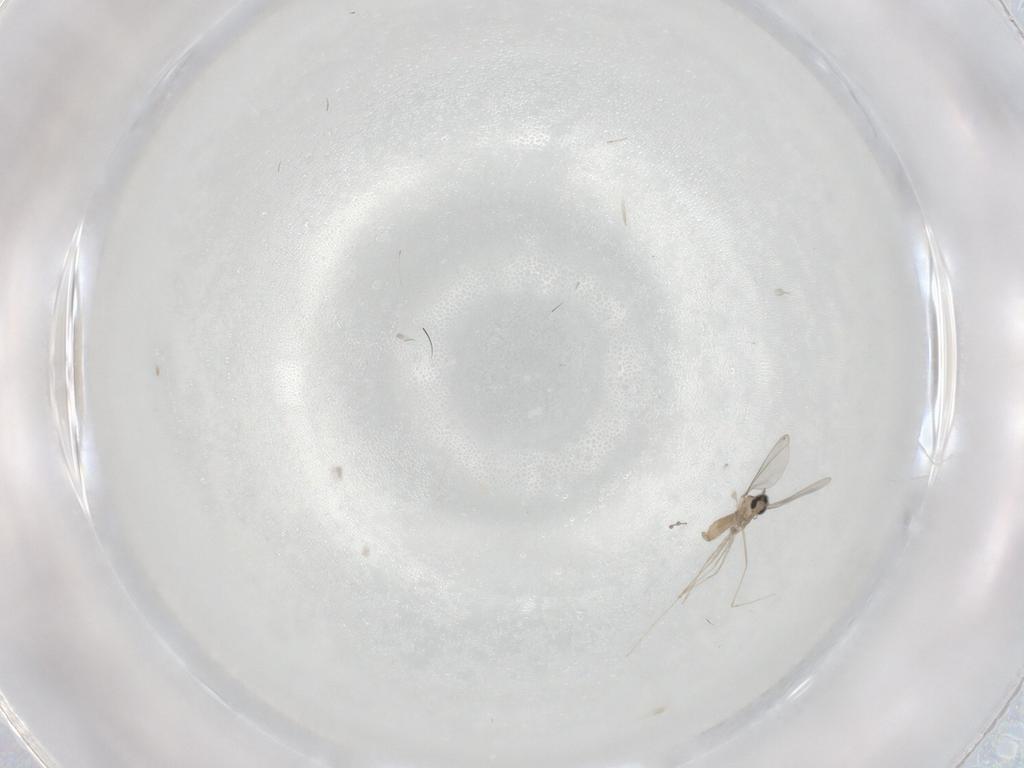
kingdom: Animalia
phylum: Arthropoda
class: Insecta
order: Diptera
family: Cecidomyiidae
